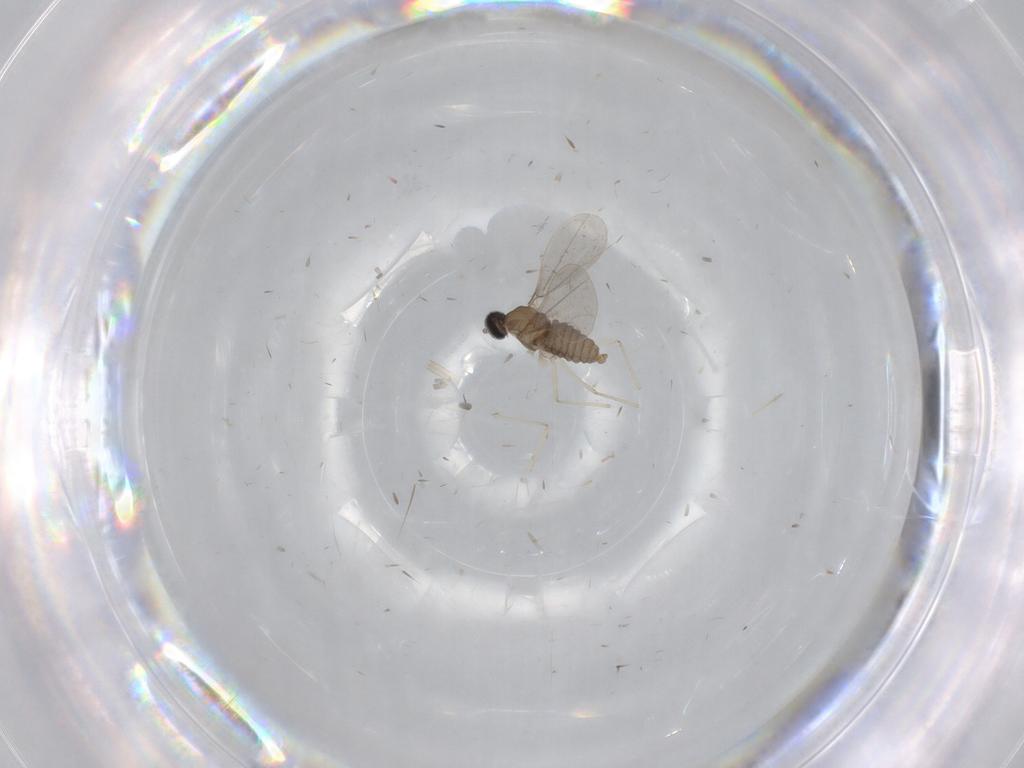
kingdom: Animalia
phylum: Arthropoda
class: Insecta
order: Diptera
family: Cecidomyiidae
